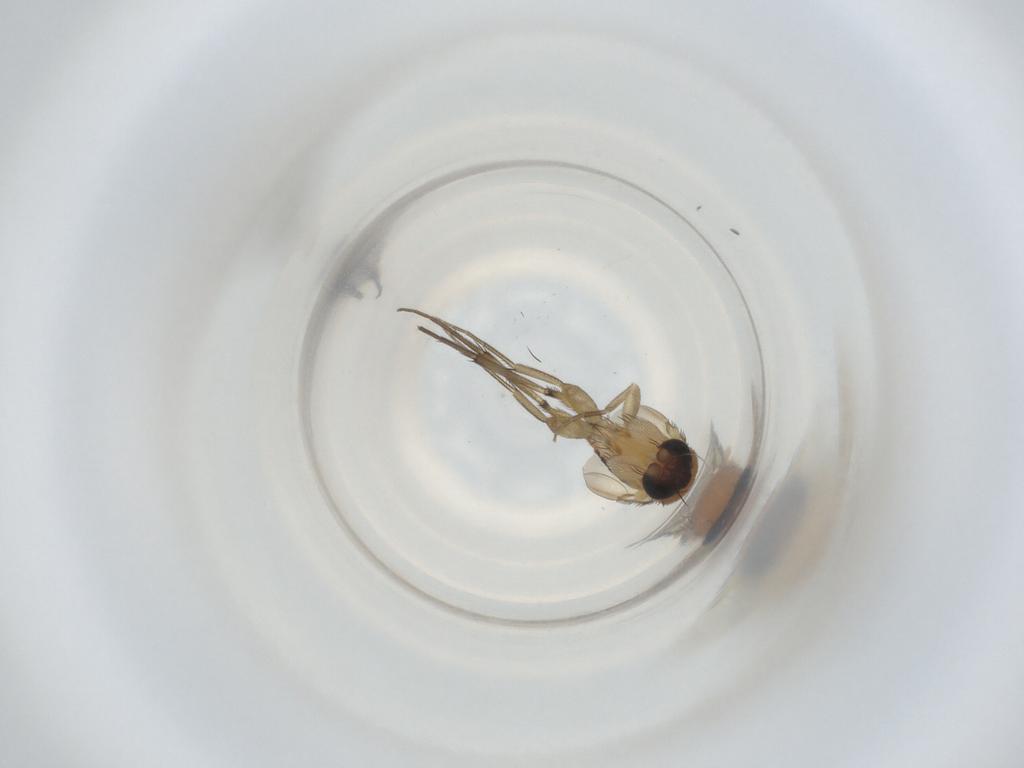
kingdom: Animalia
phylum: Arthropoda
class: Insecta
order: Diptera
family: Phoridae
